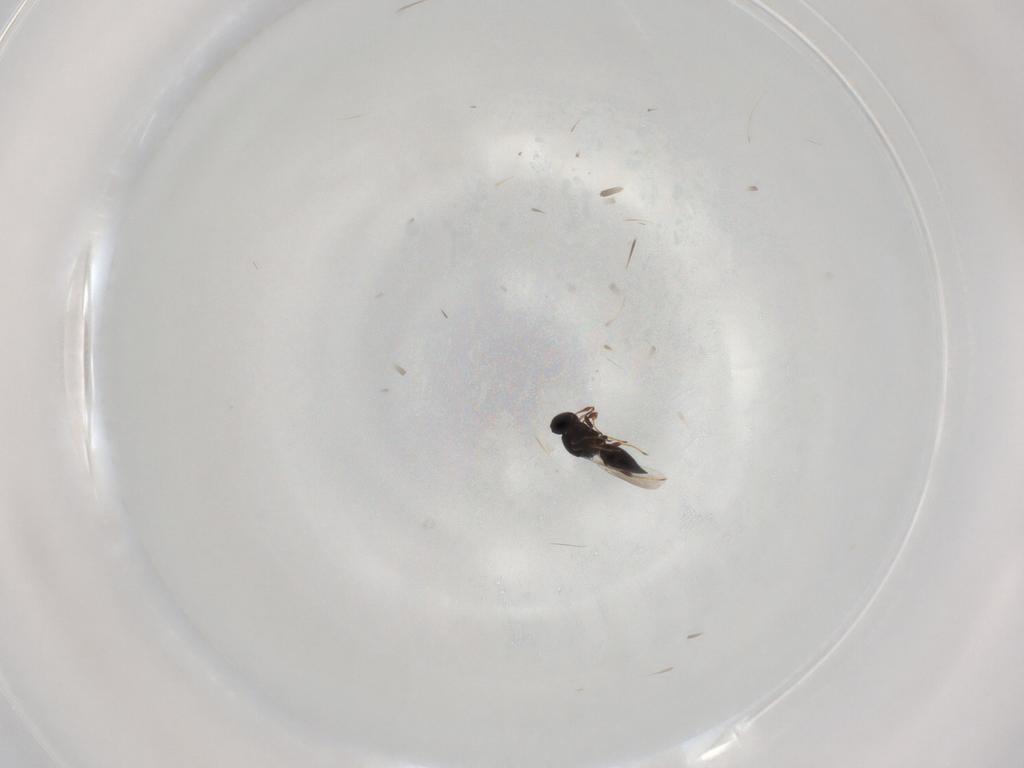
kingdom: Animalia
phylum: Arthropoda
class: Insecta
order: Hymenoptera
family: Platygastridae
